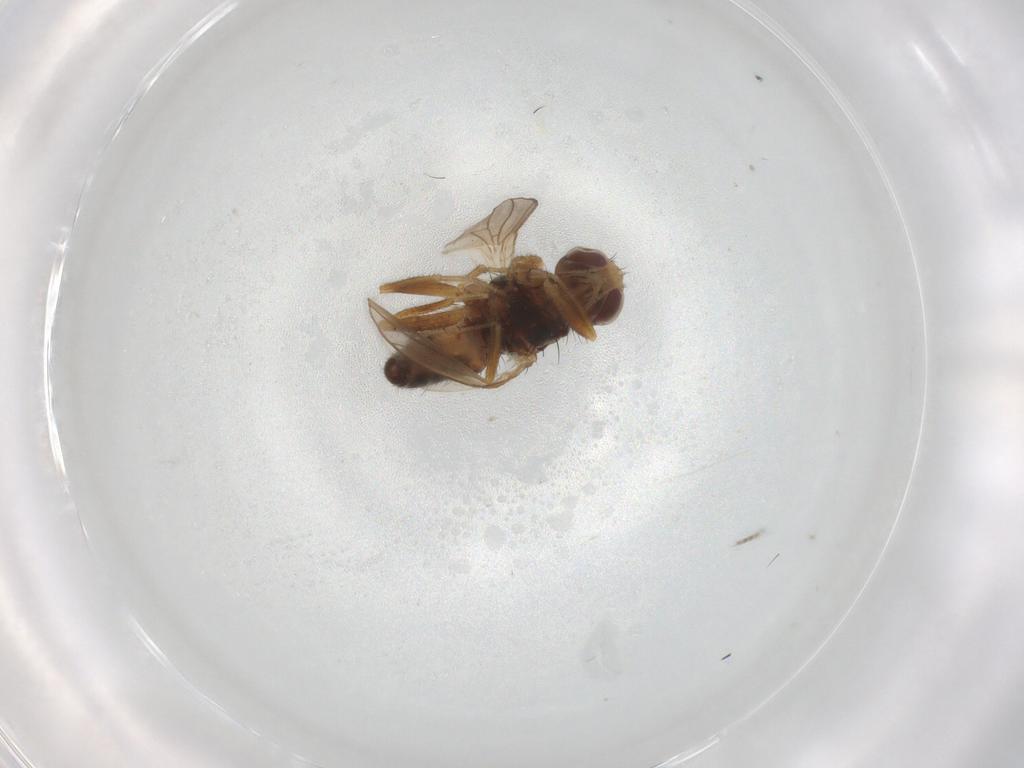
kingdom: Animalia
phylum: Arthropoda
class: Insecta
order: Diptera
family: Canacidae
